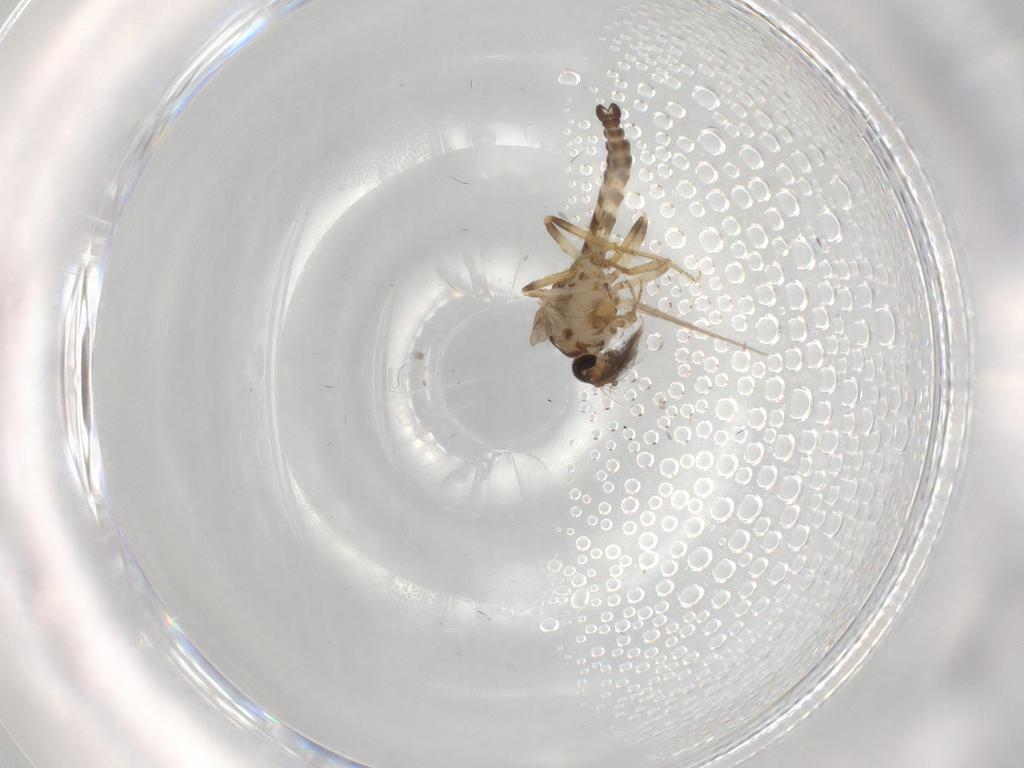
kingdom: Animalia
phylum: Arthropoda
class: Insecta
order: Diptera
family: Ceratopogonidae
